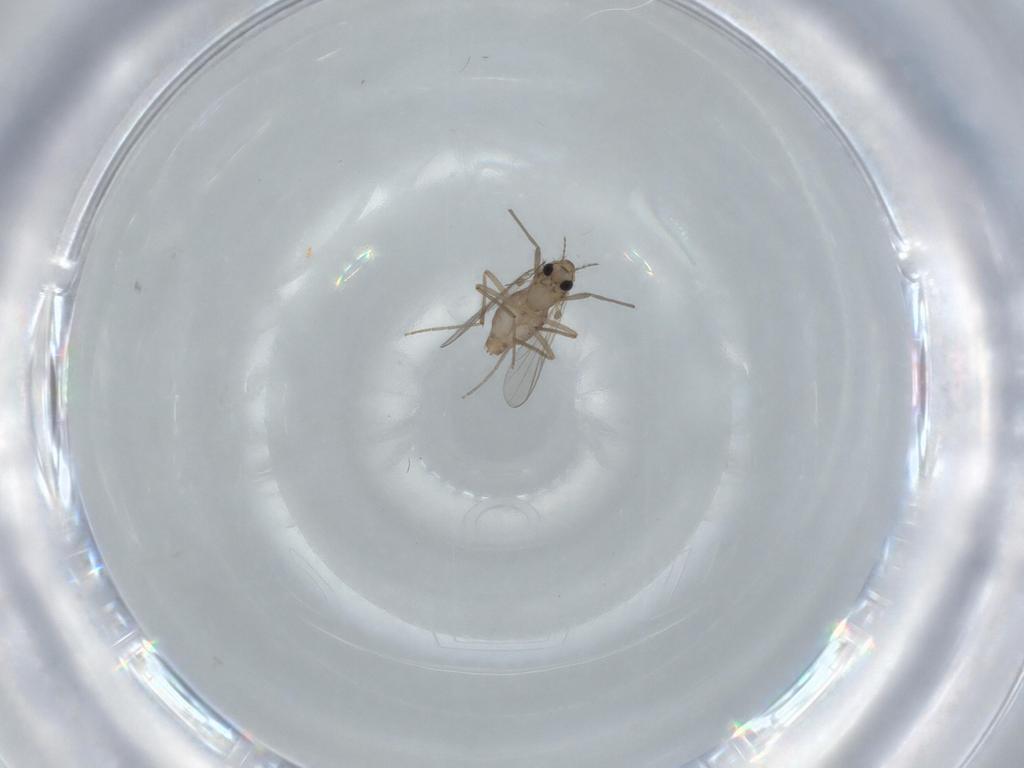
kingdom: Animalia
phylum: Arthropoda
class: Insecta
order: Diptera
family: Chironomidae
